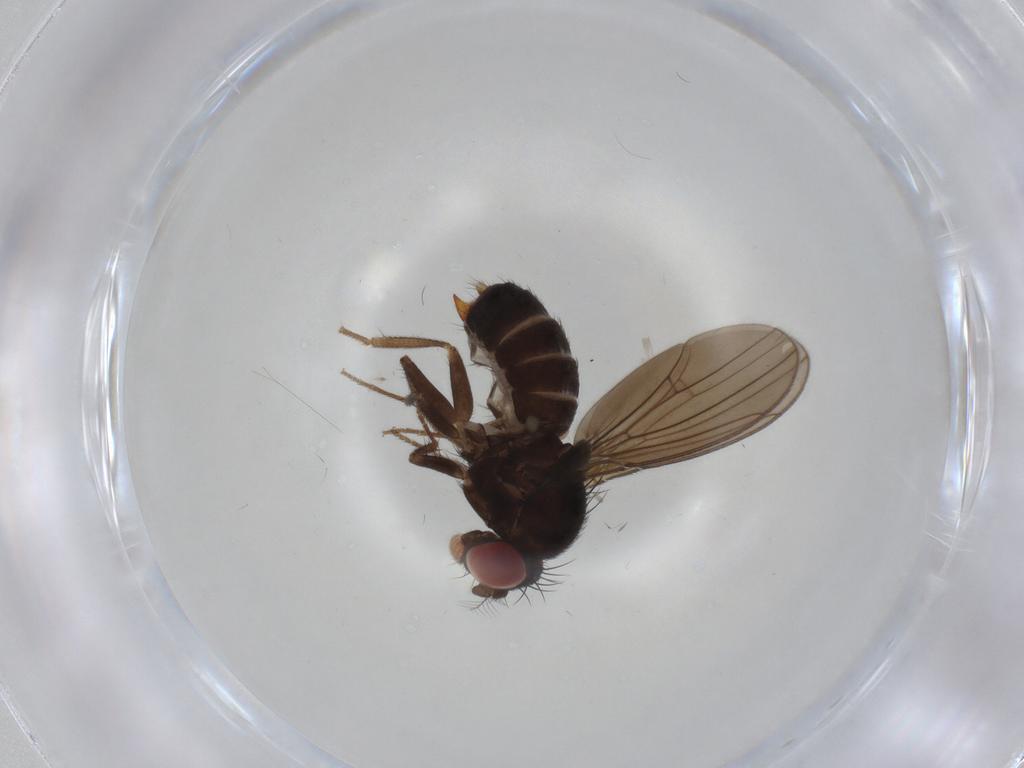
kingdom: Animalia
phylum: Arthropoda
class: Insecta
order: Diptera
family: Drosophilidae
